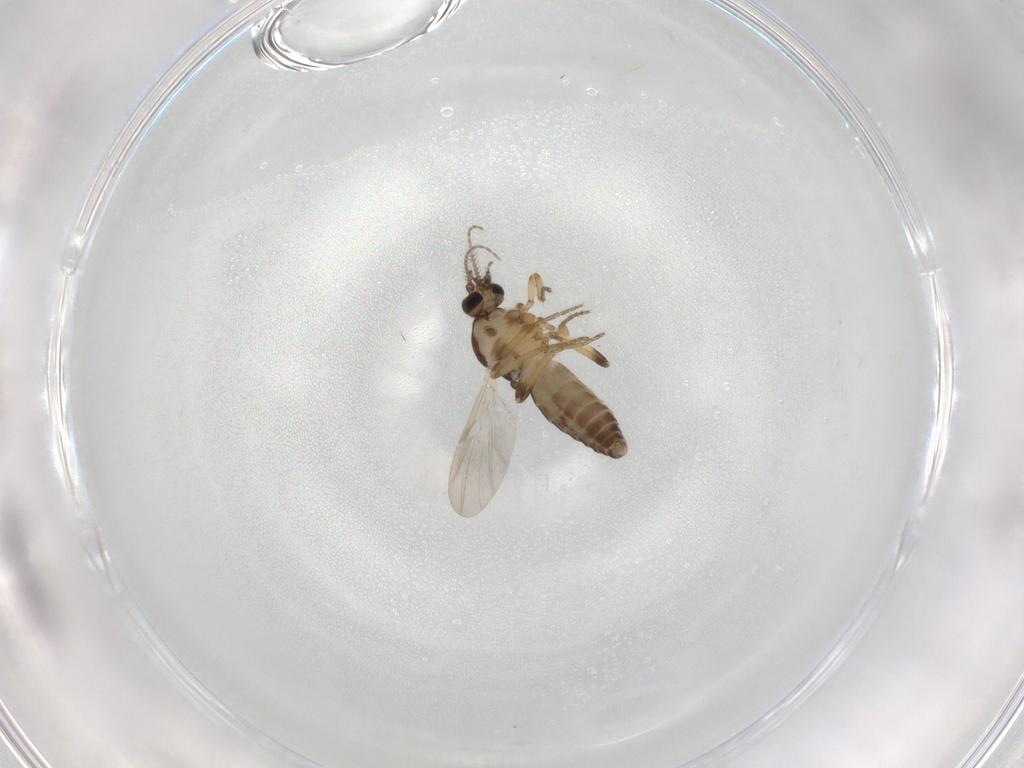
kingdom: Animalia
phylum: Arthropoda
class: Insecta
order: Diptera
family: Ceratopogonidae
